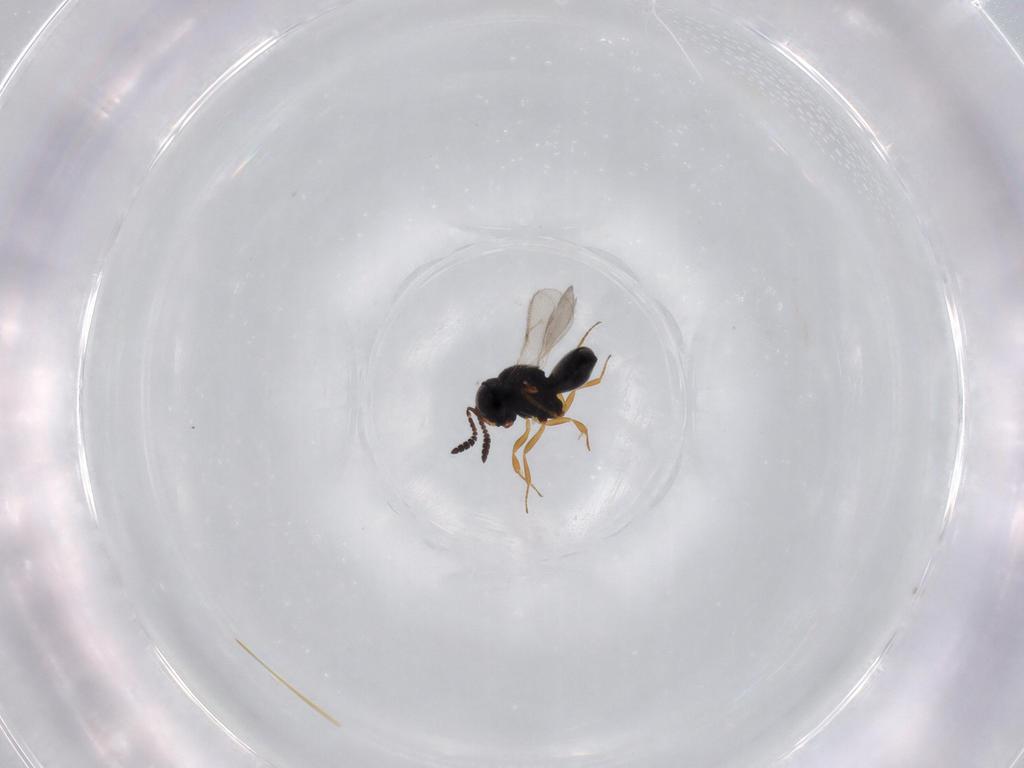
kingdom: Animalia
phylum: Arthropoda
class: Insecta
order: Hymenoptera
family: Scelionidae
